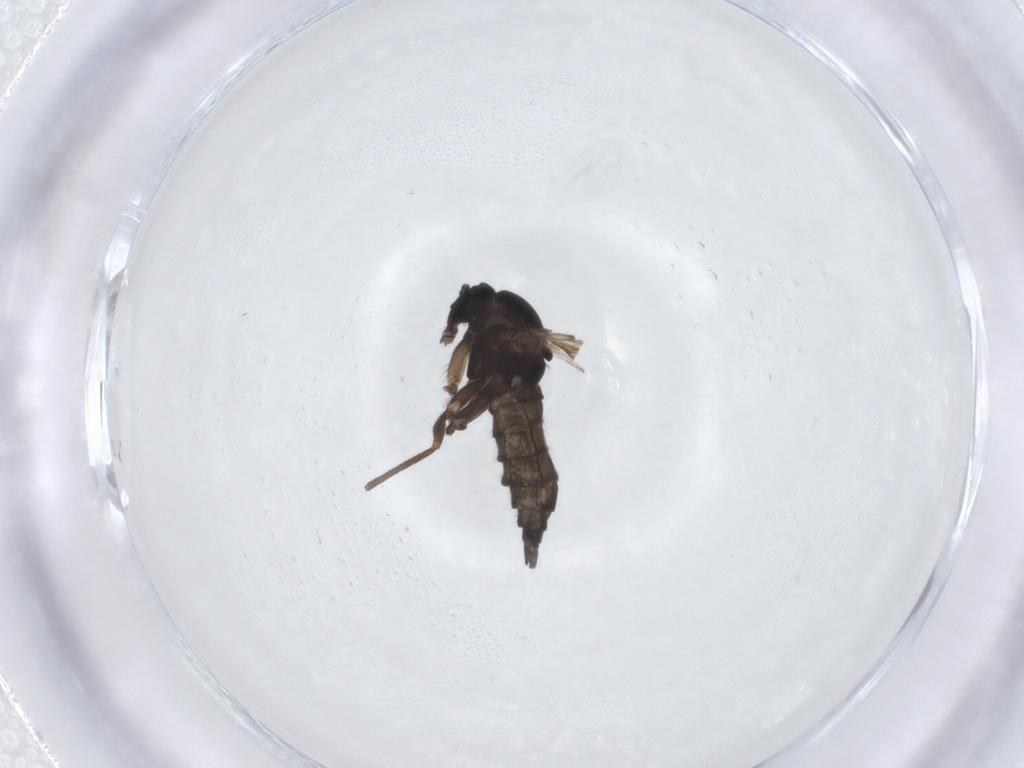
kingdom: Animalia
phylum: Arthropoda
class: Insecta
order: Diptera
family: Sciaridae
